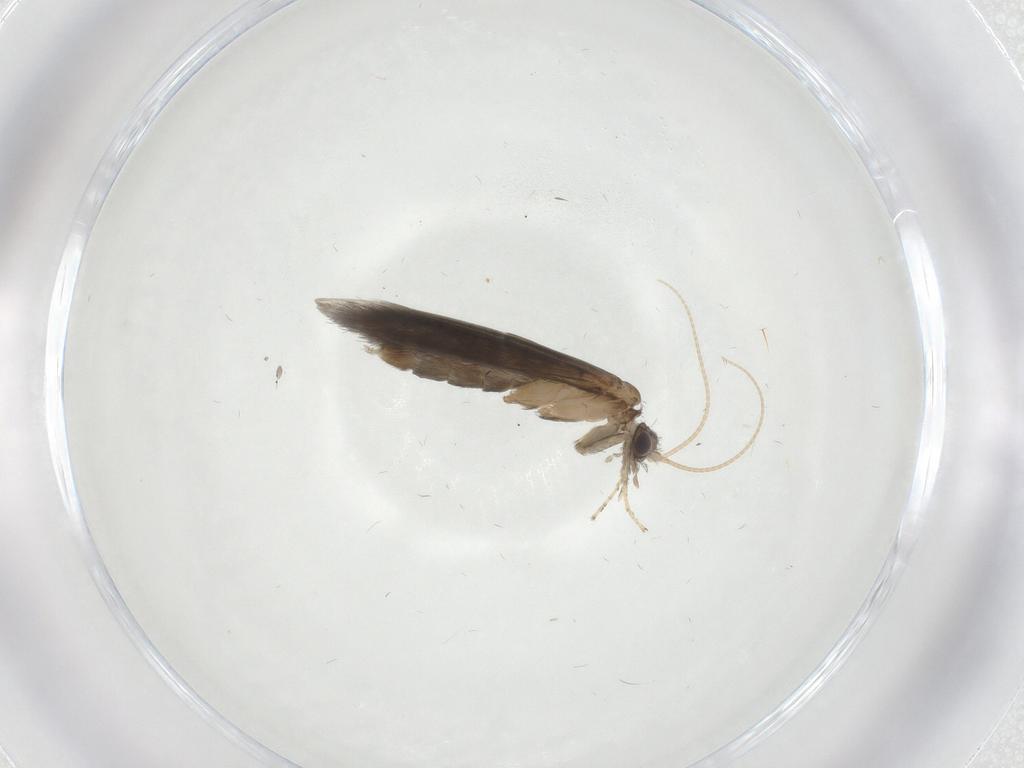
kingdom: Animalia
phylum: Arthropoda
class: Insecta
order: Trichoptera
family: Hydroptilidae
